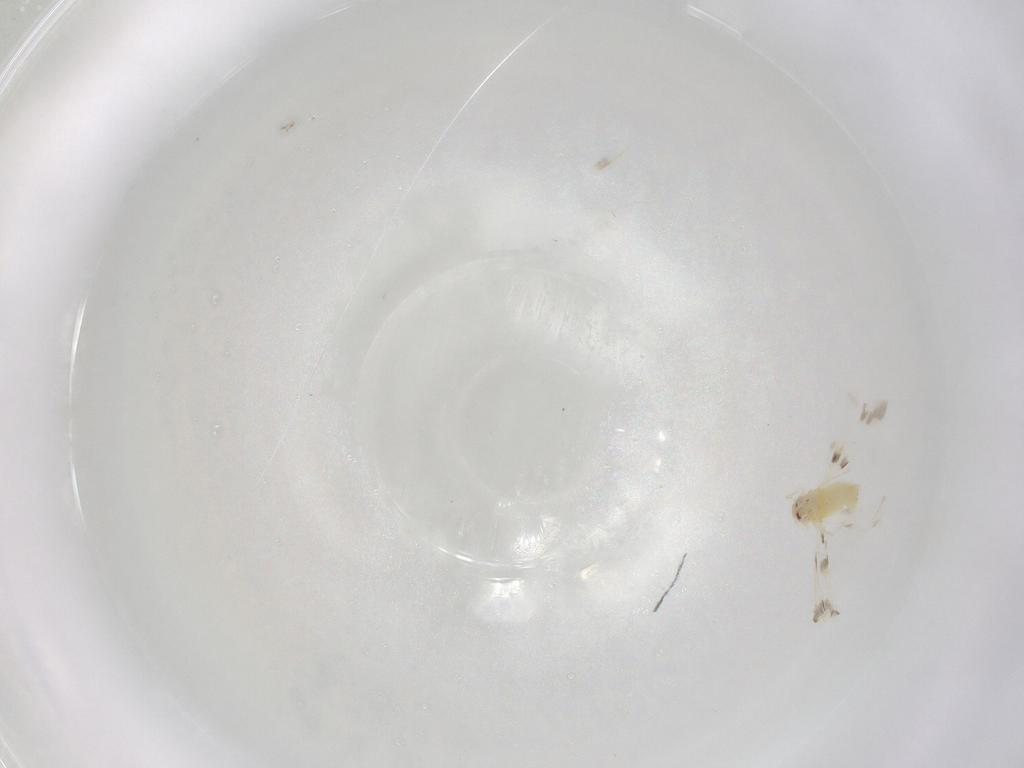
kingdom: Animalia
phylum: Arthropoda
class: Insecta
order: Hemiptera
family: Aleyrodidae
